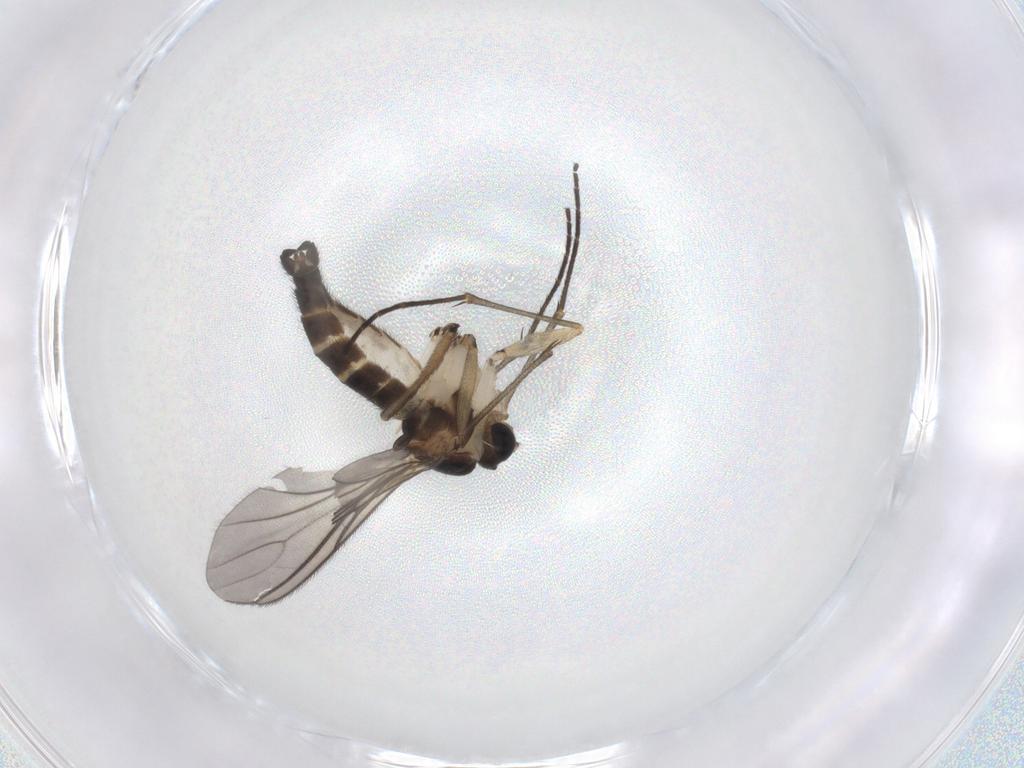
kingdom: Animalia
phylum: Arthropoda
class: Insecta
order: Diptera
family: Sciaridae
